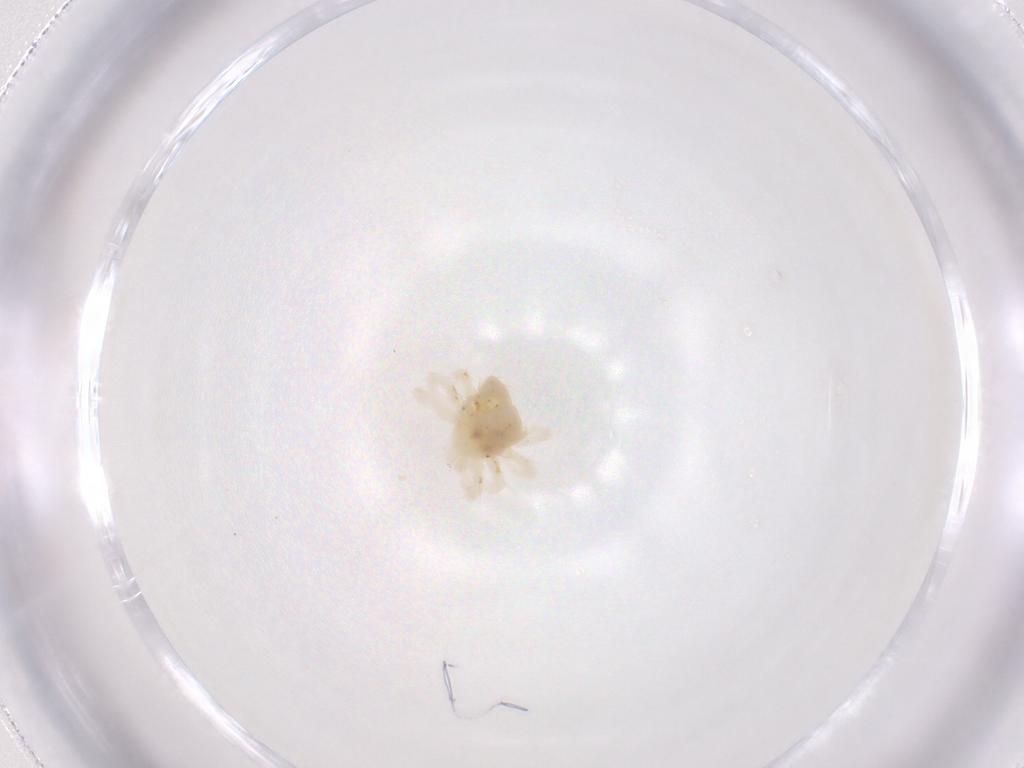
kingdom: Animalia
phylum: Arthropoda
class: Arachnida
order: Trombidiformes
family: Anystidae
